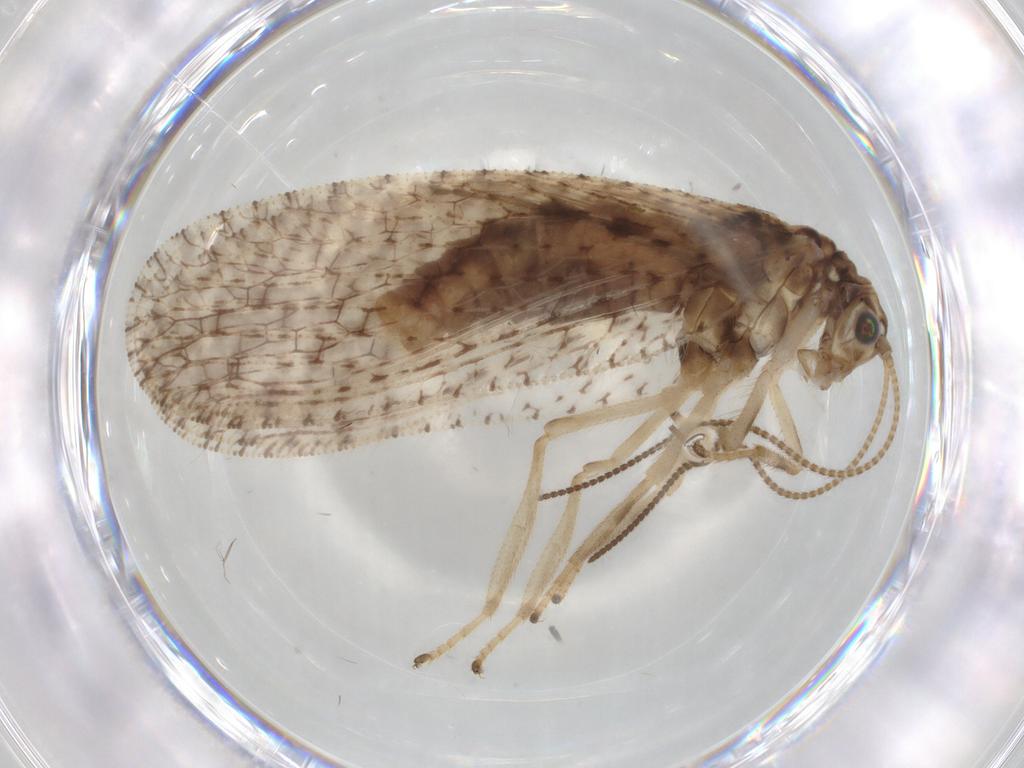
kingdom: Animalia
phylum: Arthropoda
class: Insecta
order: Neuroptera
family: Hemerobiidae
